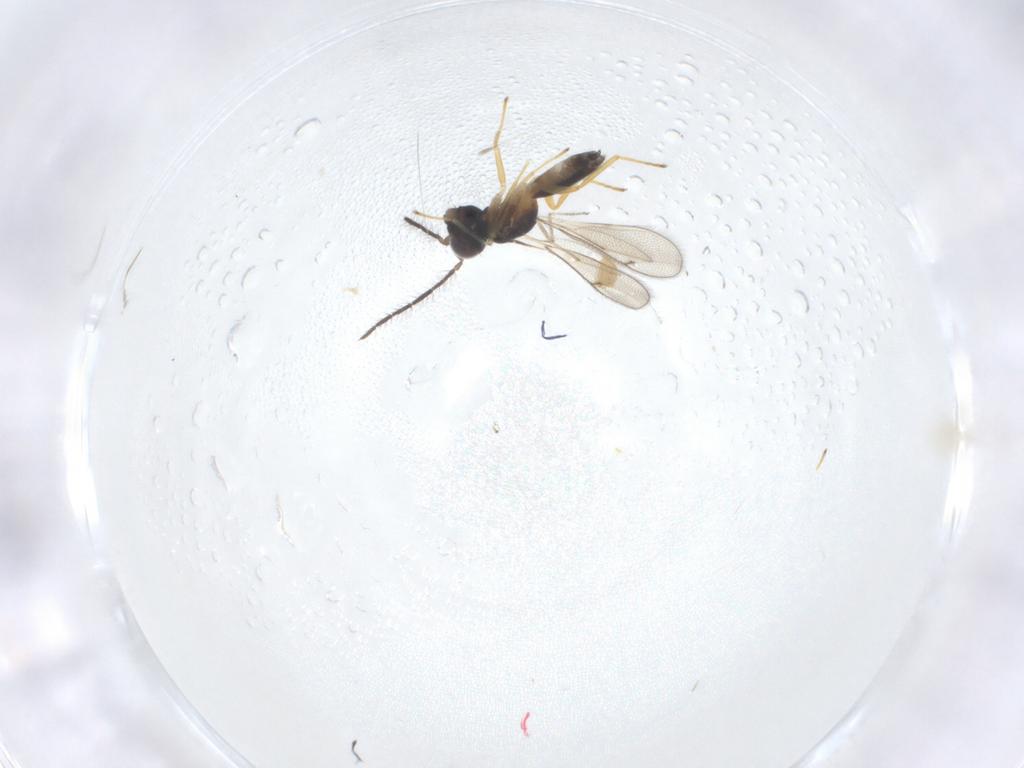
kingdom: Animalia
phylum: Arthropoda
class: Insecta
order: Hymenoptera
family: Eulophidae
